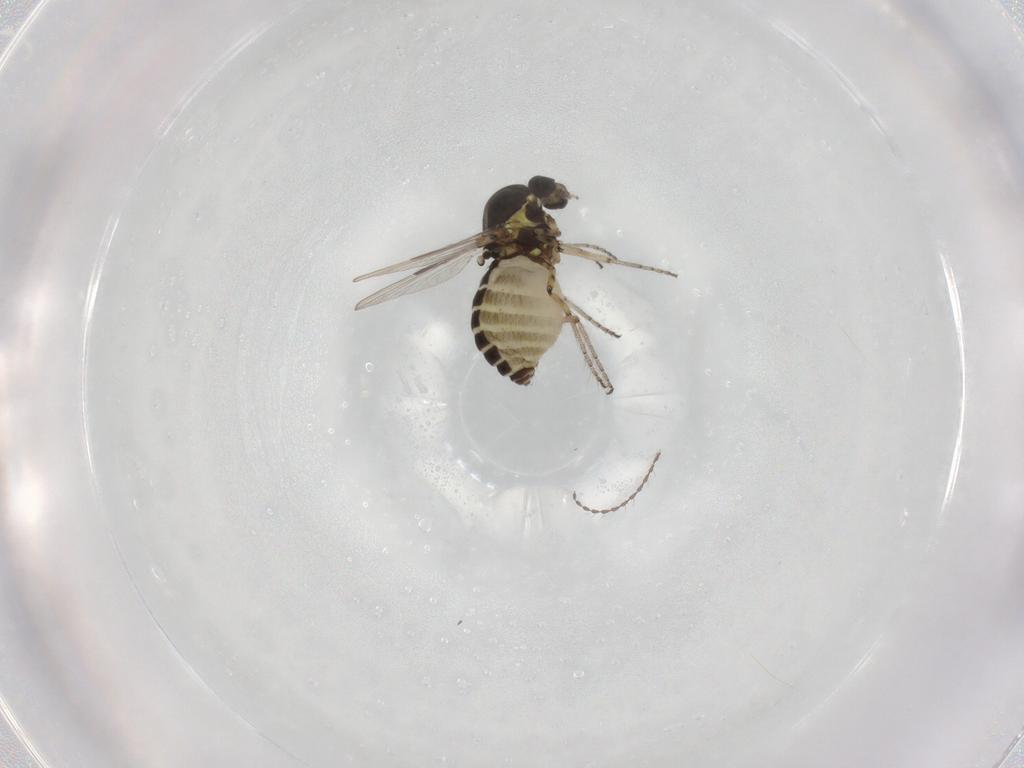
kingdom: Animalia
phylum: Arthropoda
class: Insecta
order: Diptera
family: Ceratopogonidae
